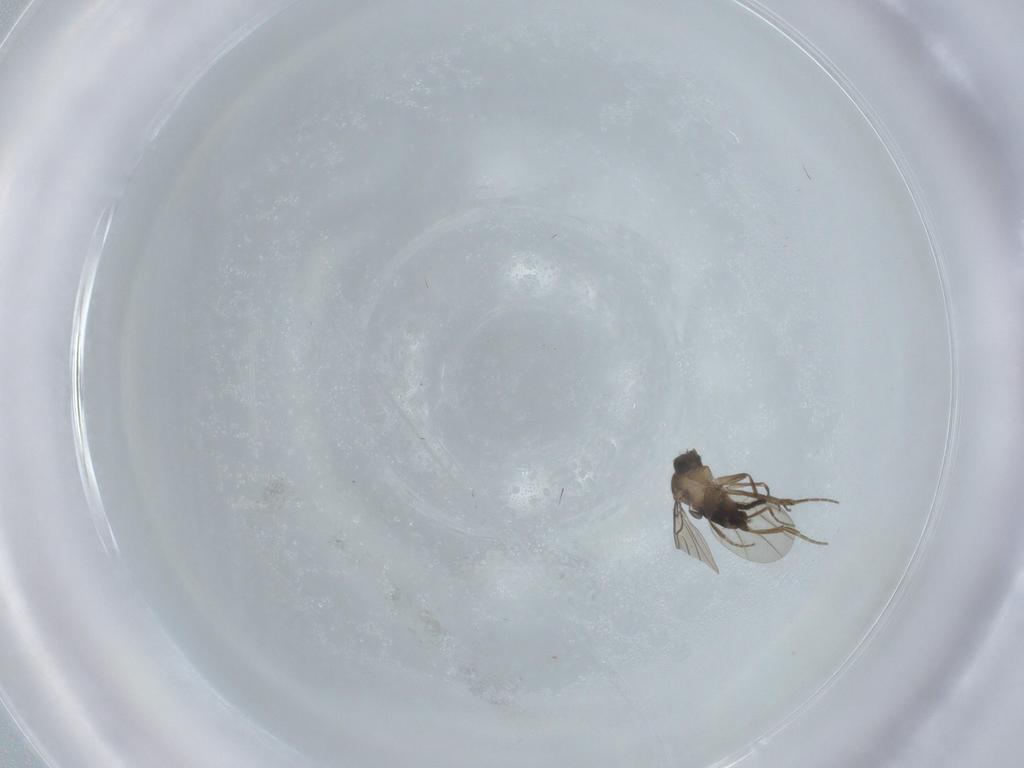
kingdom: Animalia
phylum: Arthropoda
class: Insecta
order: Diptera
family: Phoridae
